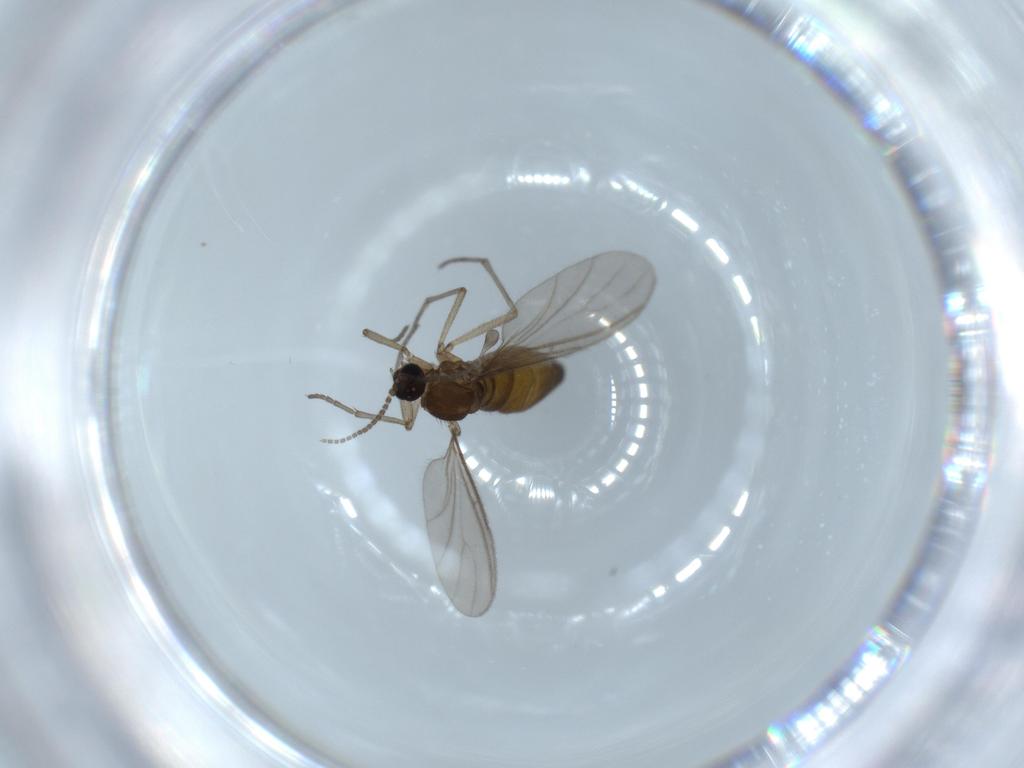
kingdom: Animalia
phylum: Arthropoda
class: Insecta
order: Diptera
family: Sciaridae
